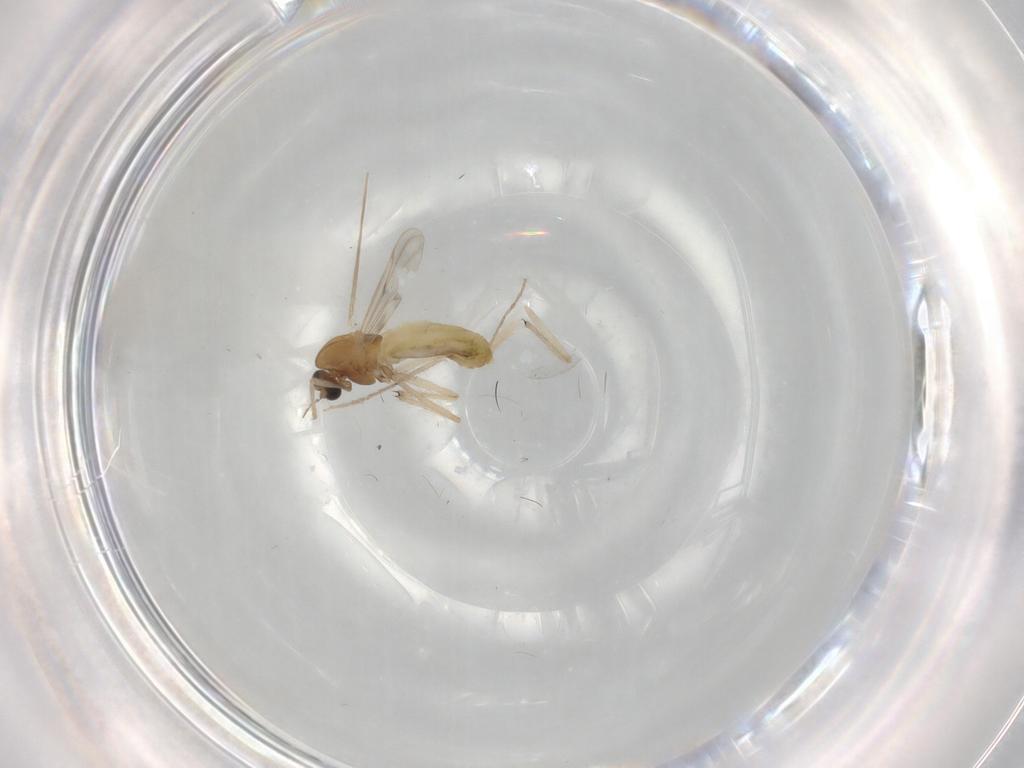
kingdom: Animalia
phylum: Arthropoda
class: Insecta
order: Diptera
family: Chironomidae
